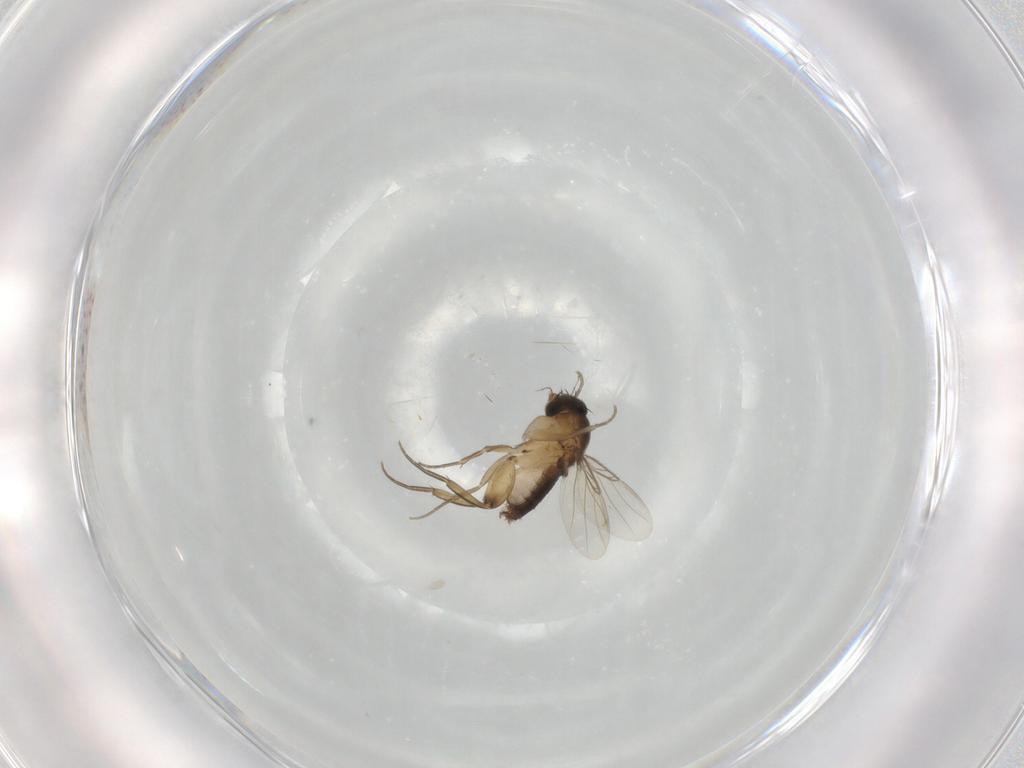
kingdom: Animalia
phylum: Arthropoda
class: Insecta
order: Diptera
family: Phoridae
